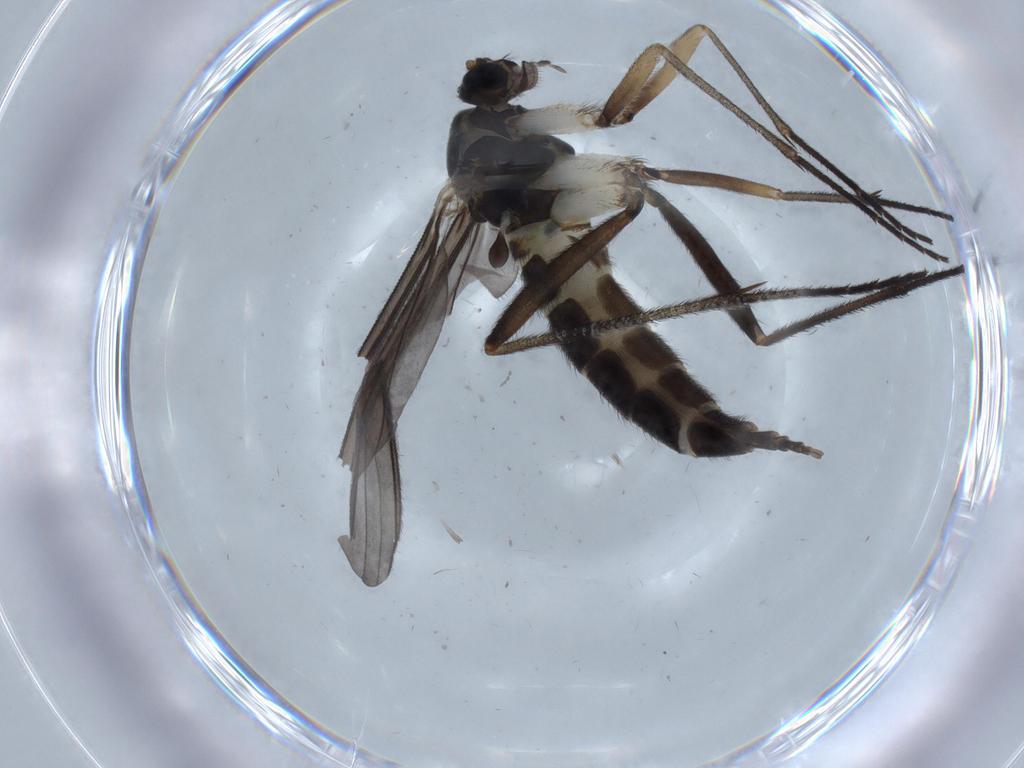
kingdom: Animalia
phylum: Arthropoda
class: Insecta
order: Diptera
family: Sciaridae
